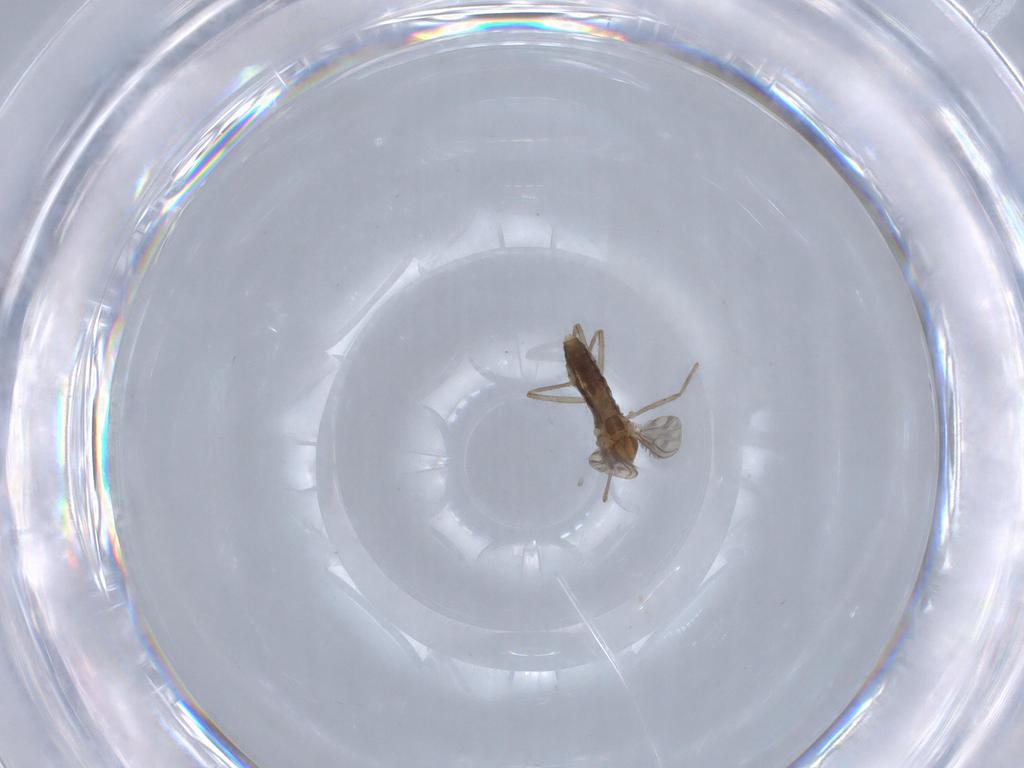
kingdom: Animalia
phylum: Arthropoda
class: Insecta
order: Diptera
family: Chironomidae
